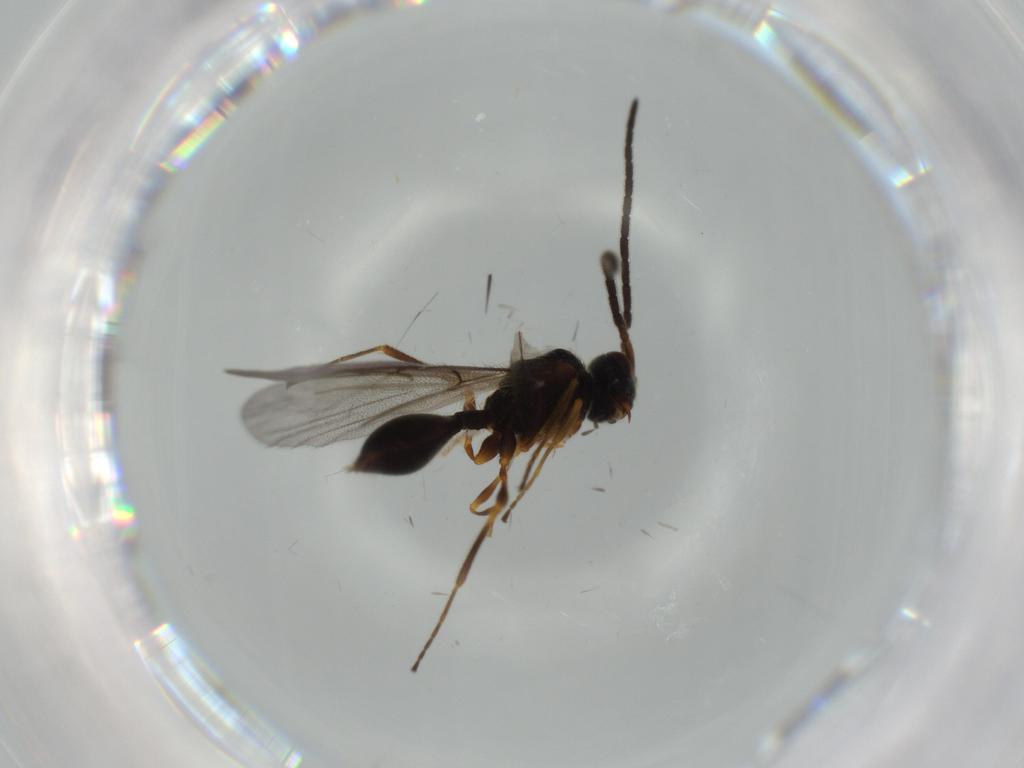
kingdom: Animalia
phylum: Arthropoda
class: Insecta
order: Hymenoptera
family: Diapriidae
